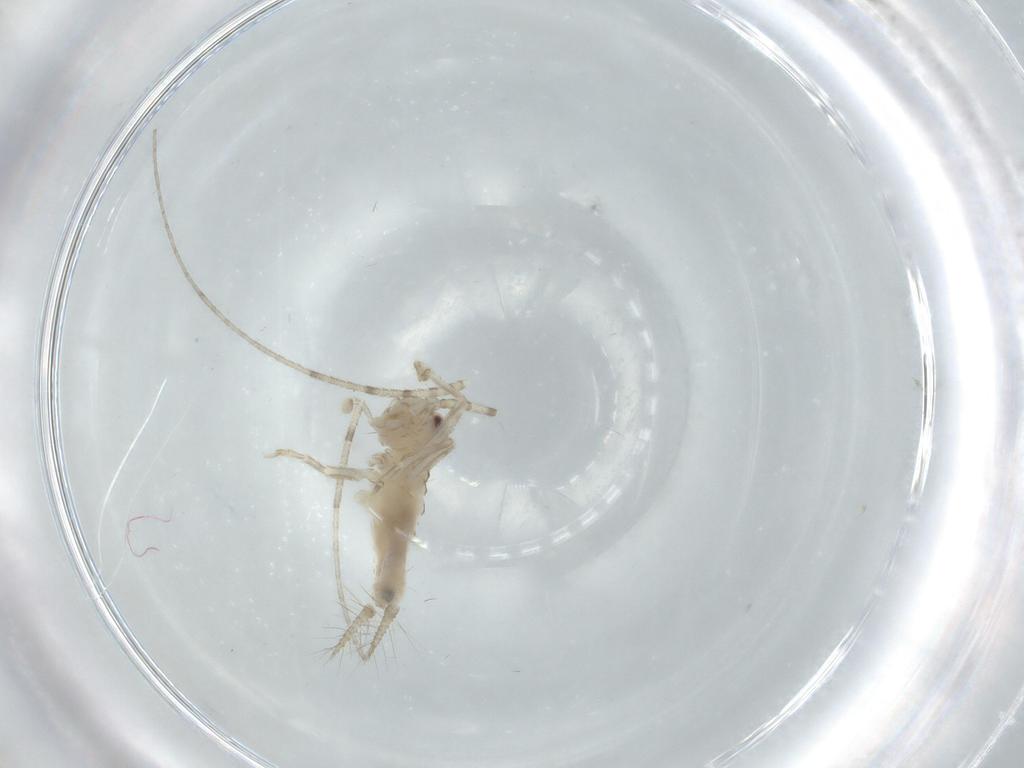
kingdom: Animalia
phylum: Arthropoda
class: Insecta
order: Orthoptera
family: Trigonidiidae
